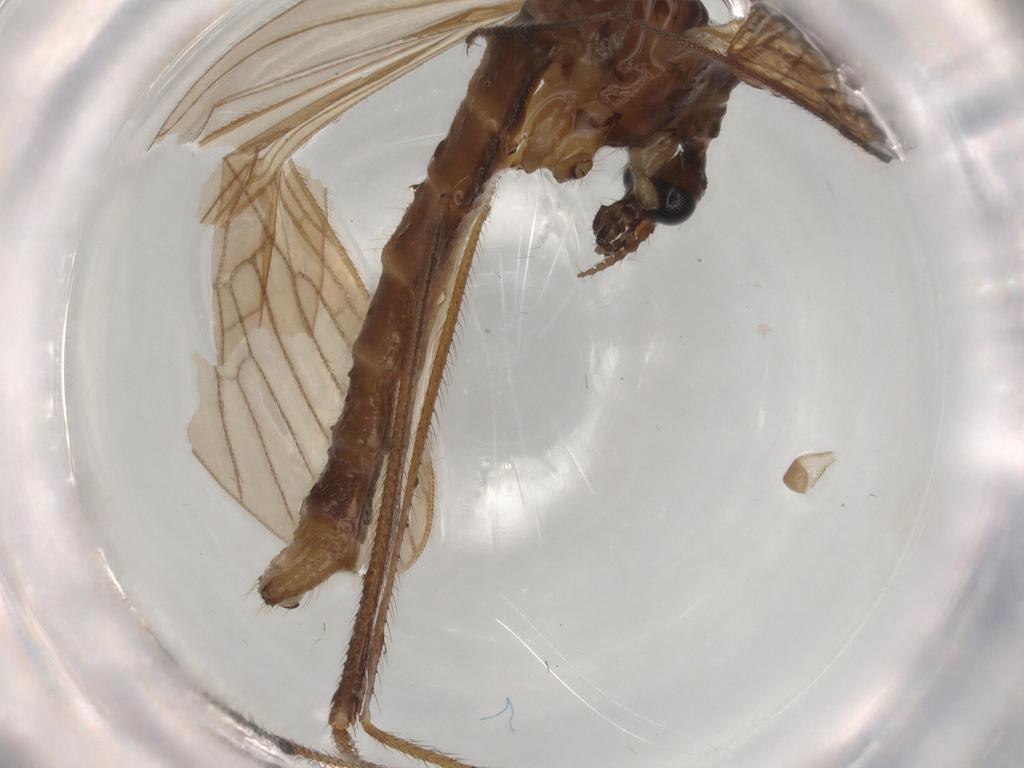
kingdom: Animalia
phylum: Arthropoda
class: Insecta
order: Diptera
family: Limoniidae
